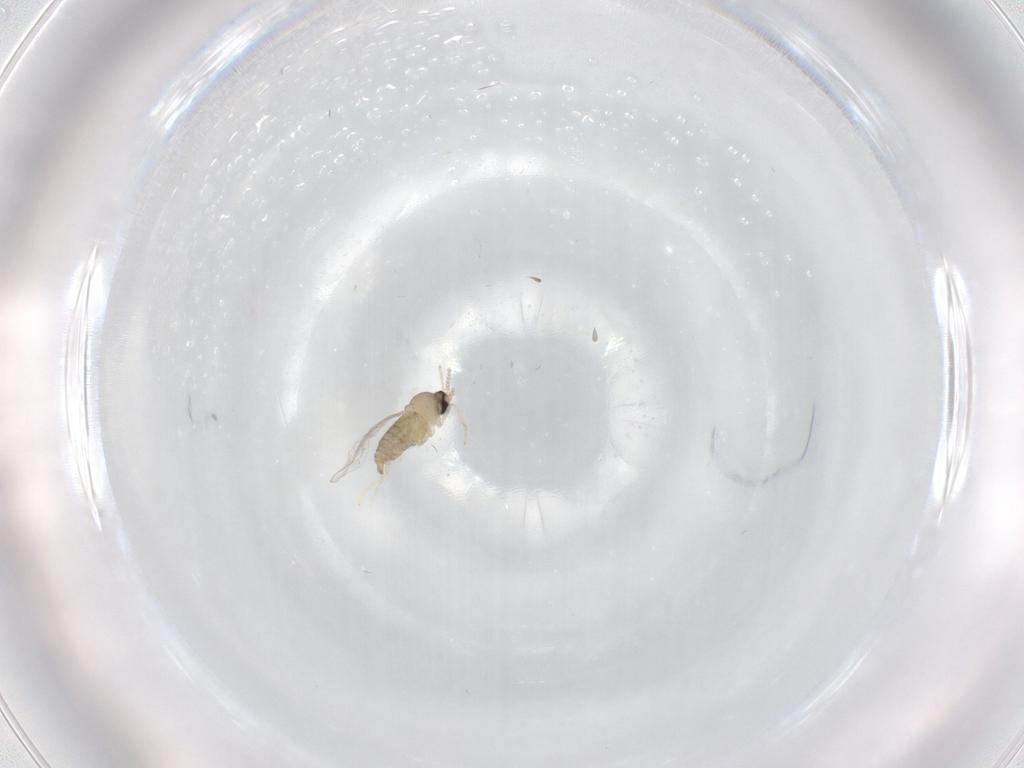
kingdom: Animalia
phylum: Arthropoda
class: Insecta
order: Diptera
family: Cecidomyiidae
